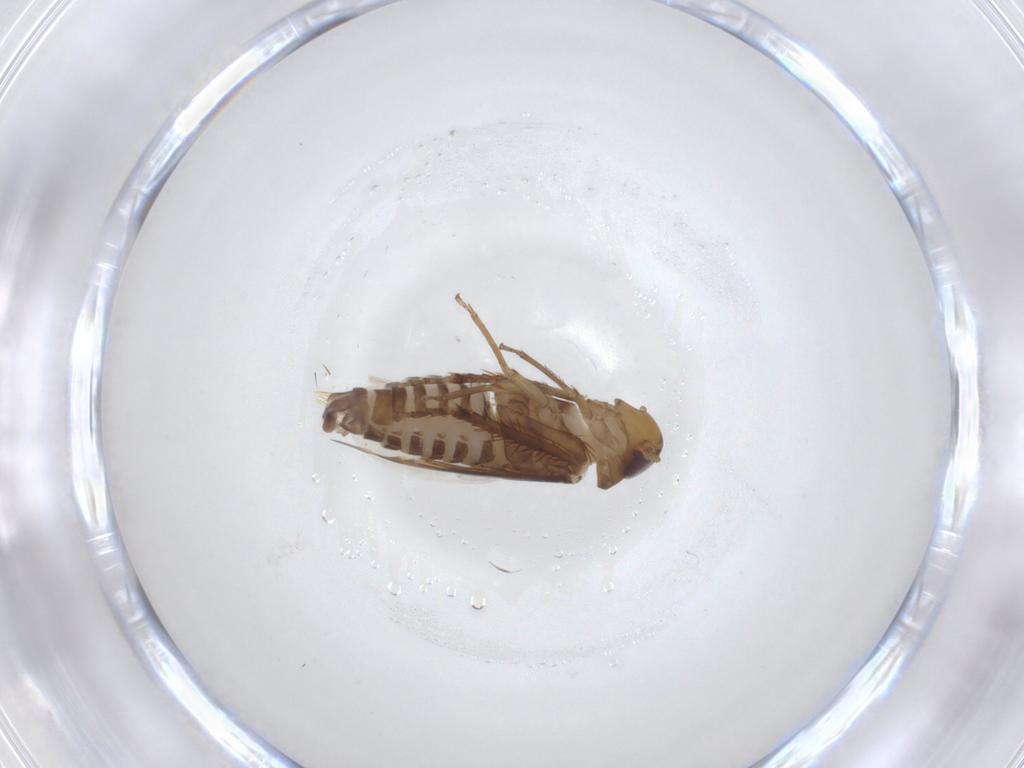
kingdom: Animalia
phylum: Arthropoda
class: Insecta
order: Hemiptera
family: Cicadellidae
